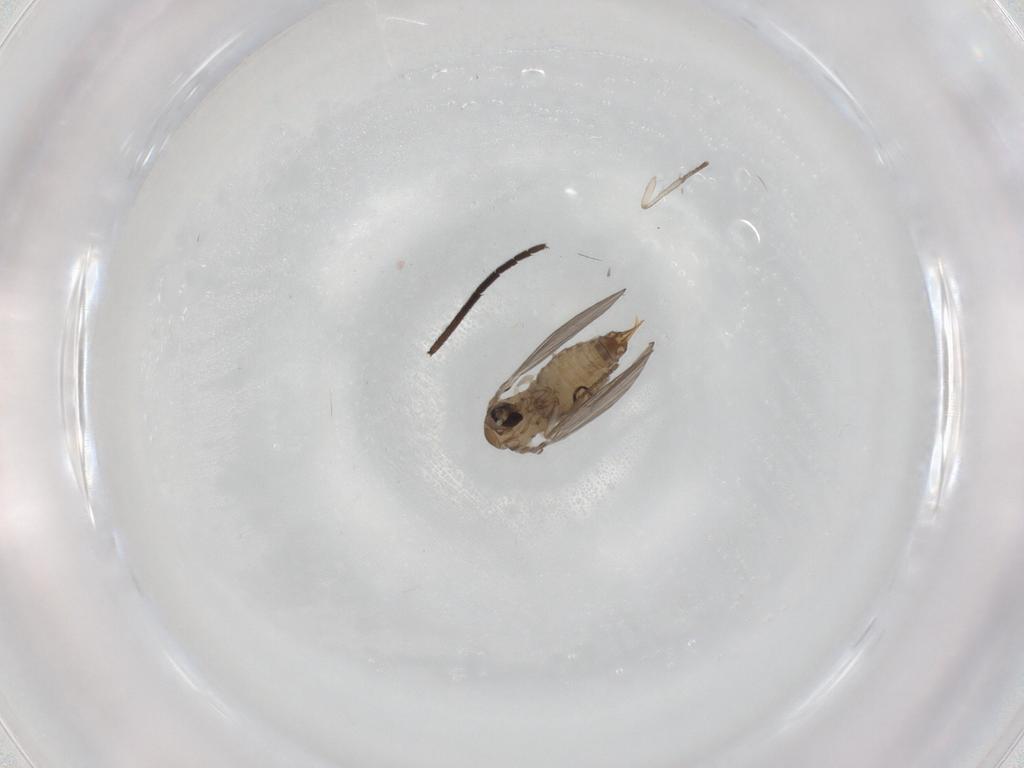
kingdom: Animalia
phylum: Arthropoda
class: Insecta
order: Diptera
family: Psychodidae
